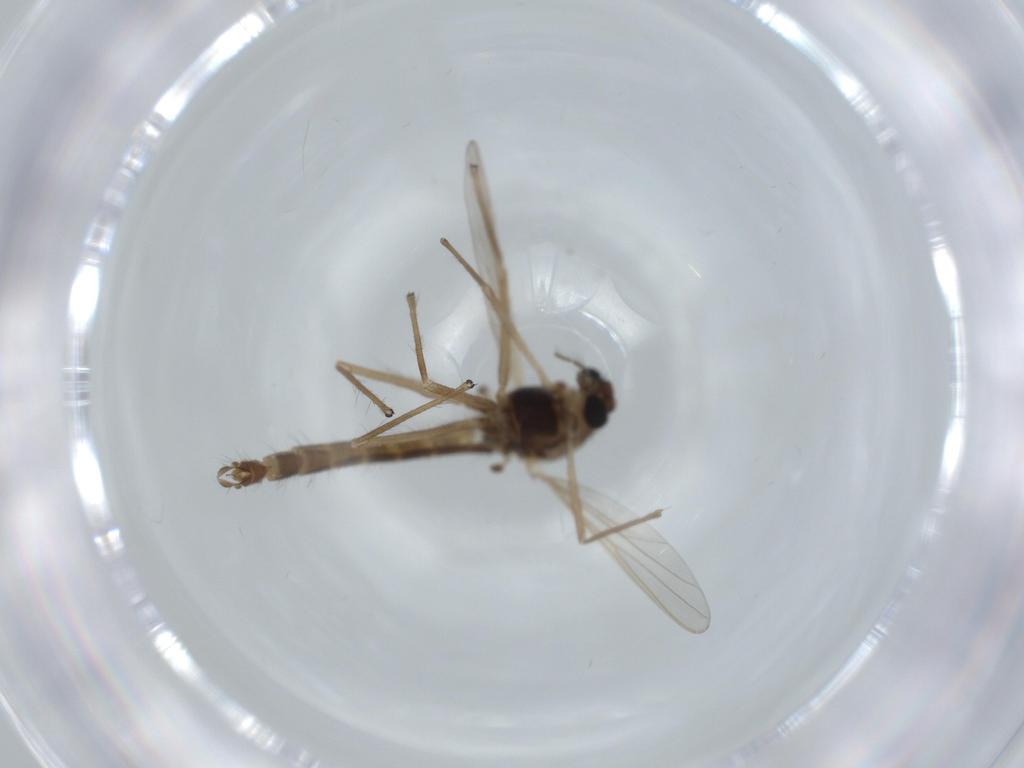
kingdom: Animalia
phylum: Arthropoda
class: Insecta
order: Diptera
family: Chironomidae
